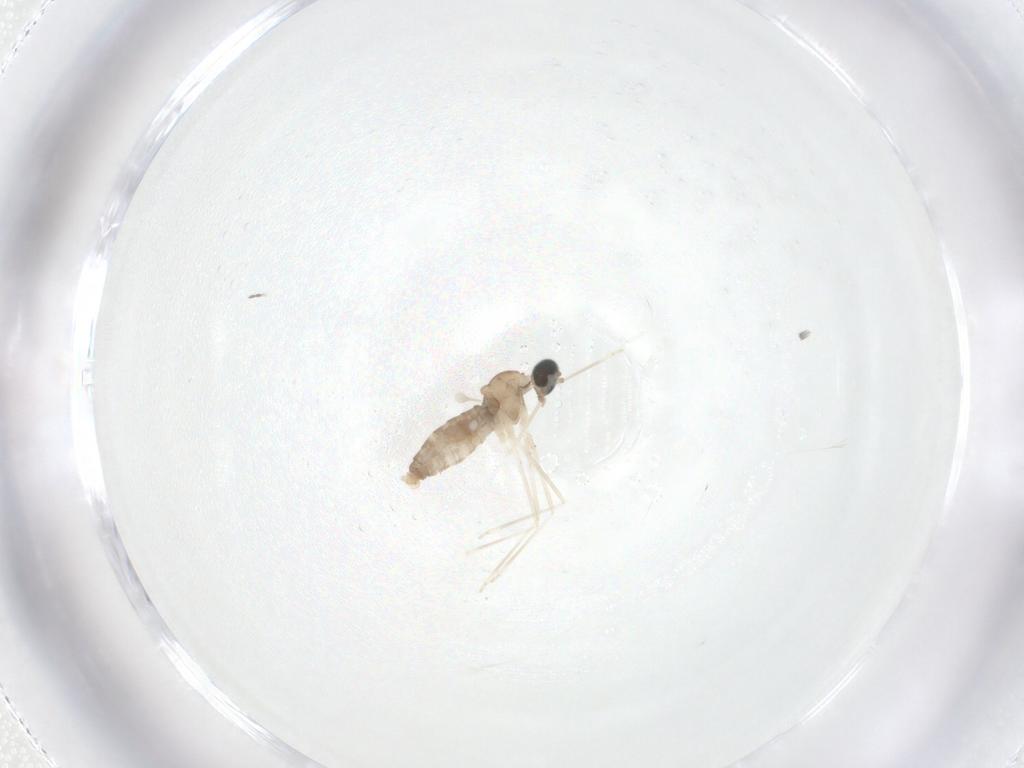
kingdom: Animalia
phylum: Arthropoda
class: Insecta
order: Diptera
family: Cecidomyiidae
